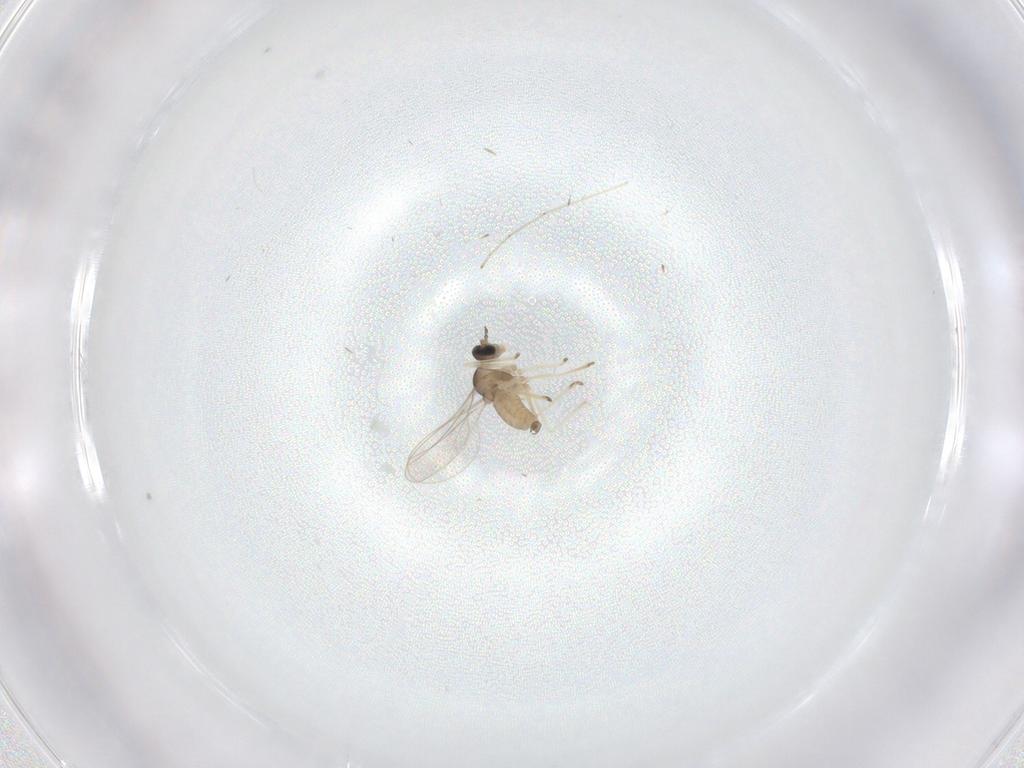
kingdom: Animalia
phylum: Arthropoda
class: Insecta
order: Diptera
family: Cecidomyiidae
